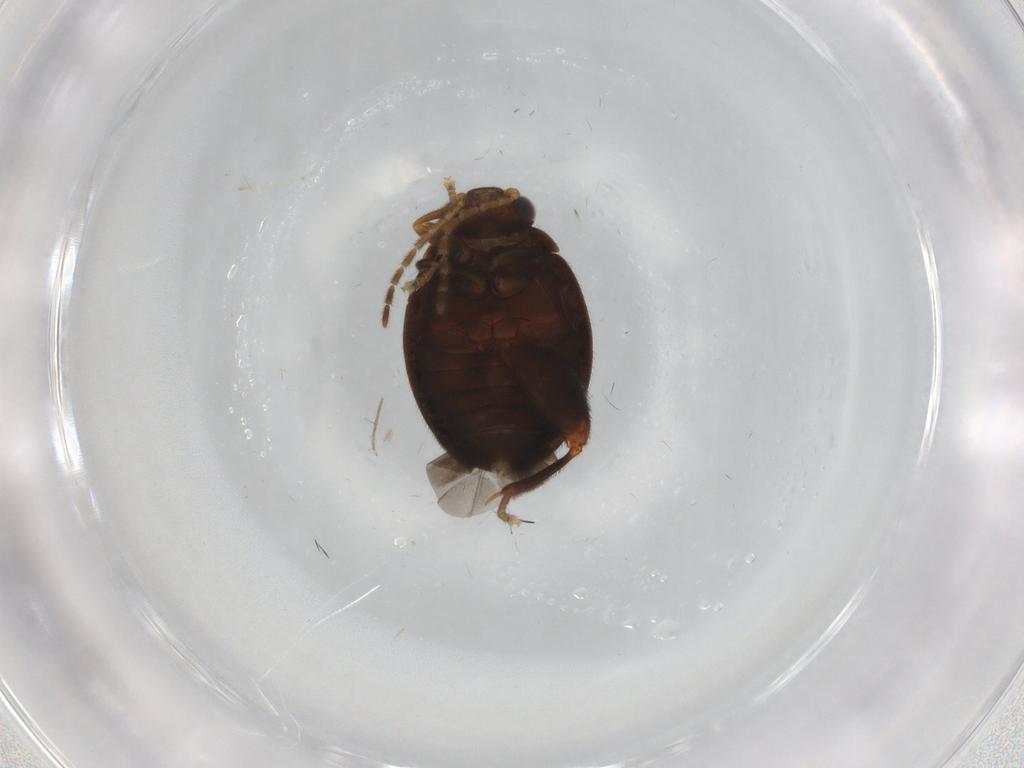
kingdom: Animalia
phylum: Arthropoda
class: Insecta
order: Coleoptera
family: Scirtidae
